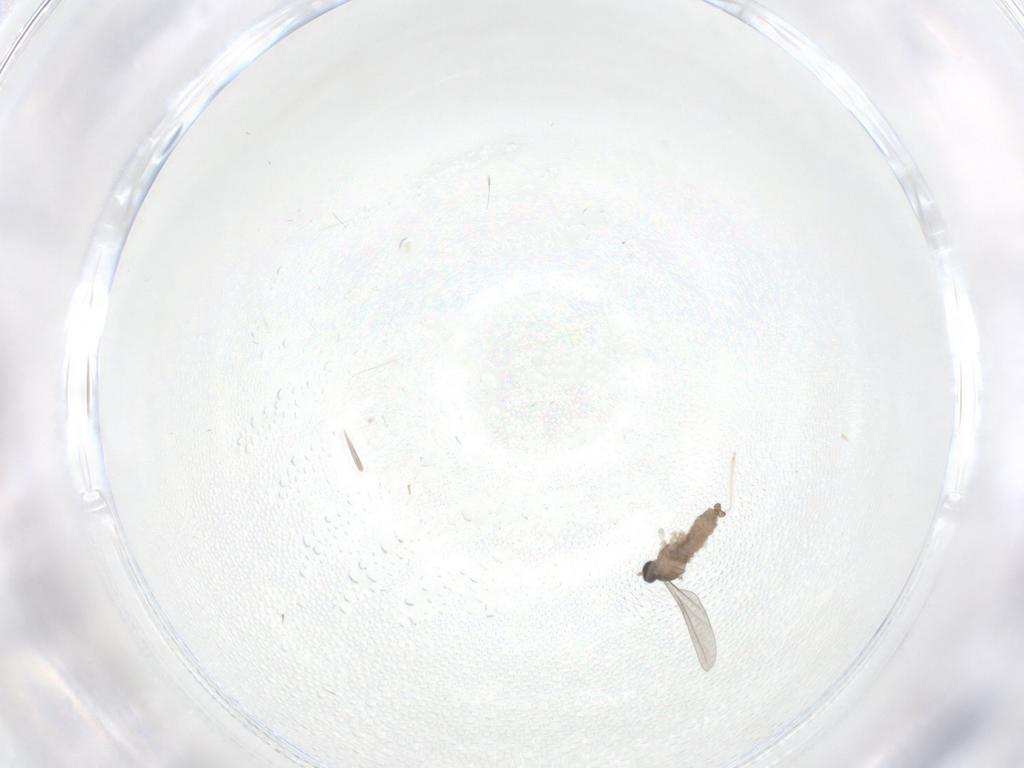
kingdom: Animalia
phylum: Arthropoda
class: Insecta
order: Diptera
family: Cecidomyiidae
